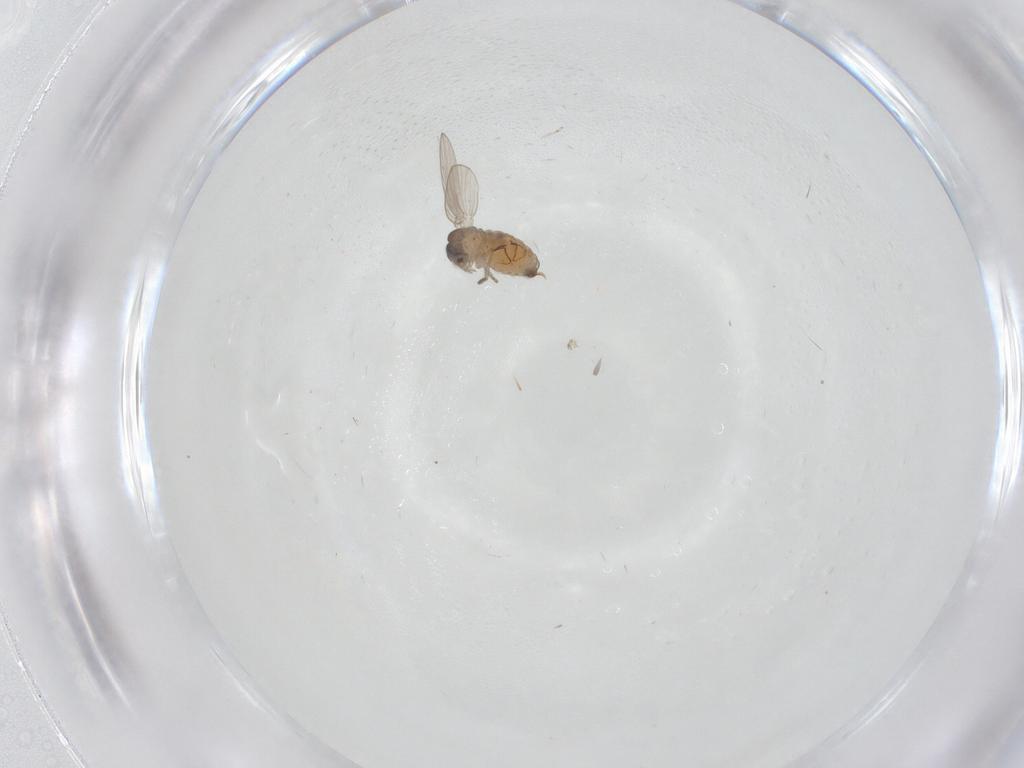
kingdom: Animalia
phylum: Arthropoda
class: Insecta
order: Diptera
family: Psychodidae
